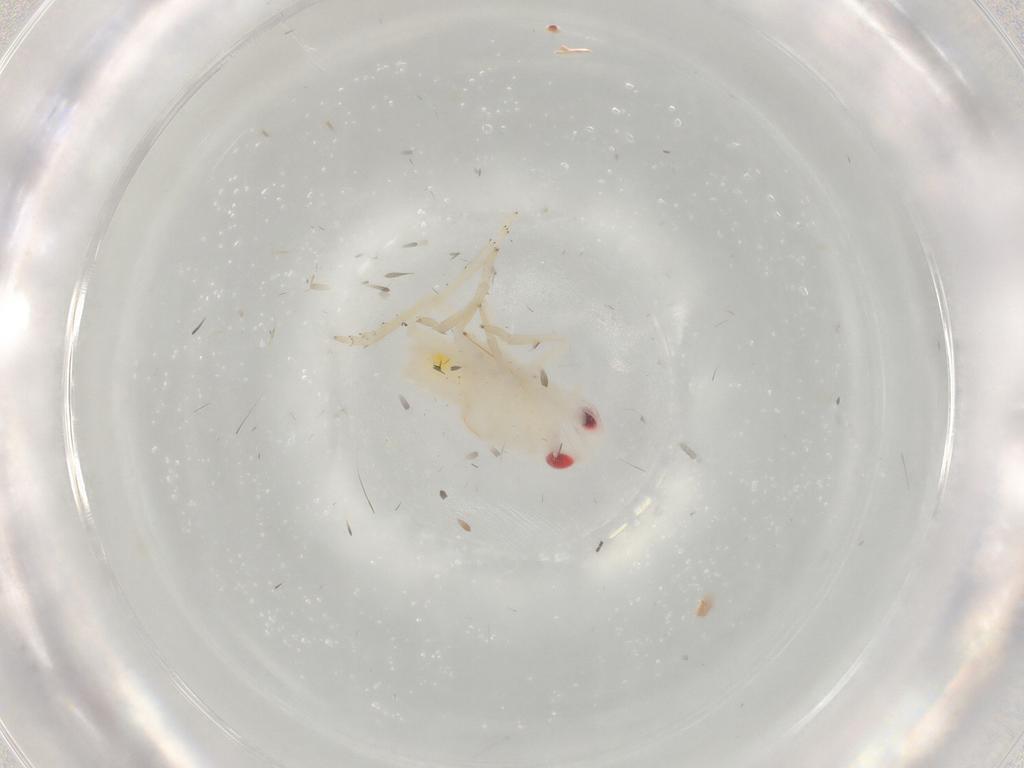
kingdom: Animalia
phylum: Arthropoda
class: Insecta
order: Hemiptera
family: Tropiduchidae
